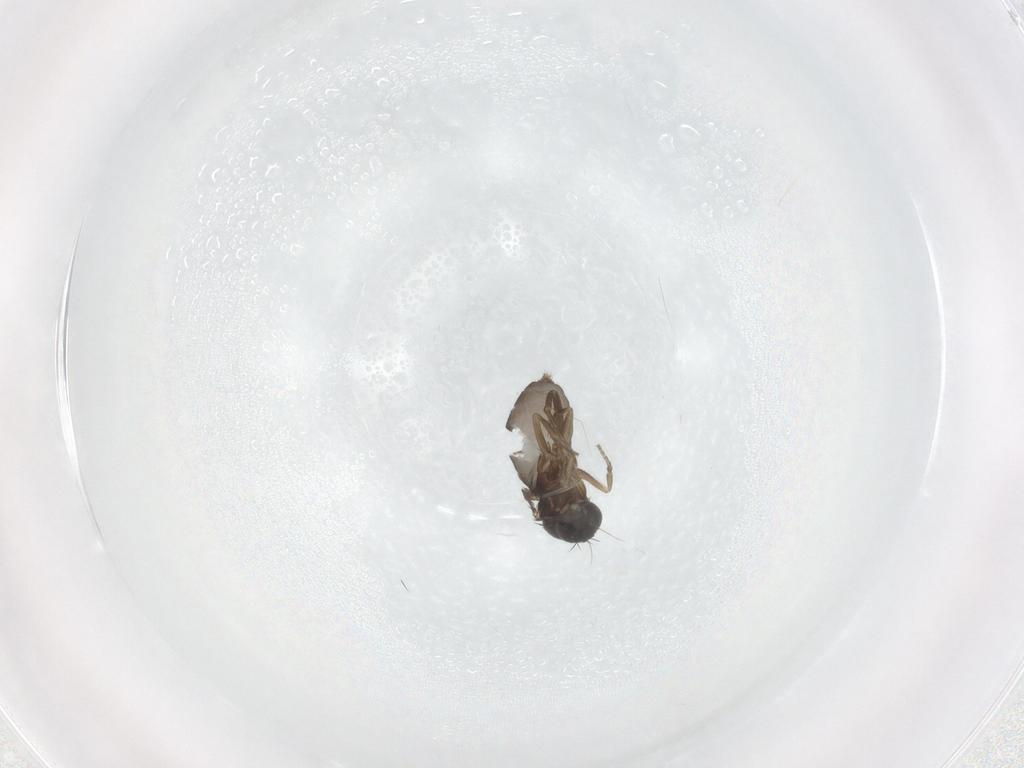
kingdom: Animalia
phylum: Arthropoda
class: Insecta
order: Diptera
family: Phoridae
